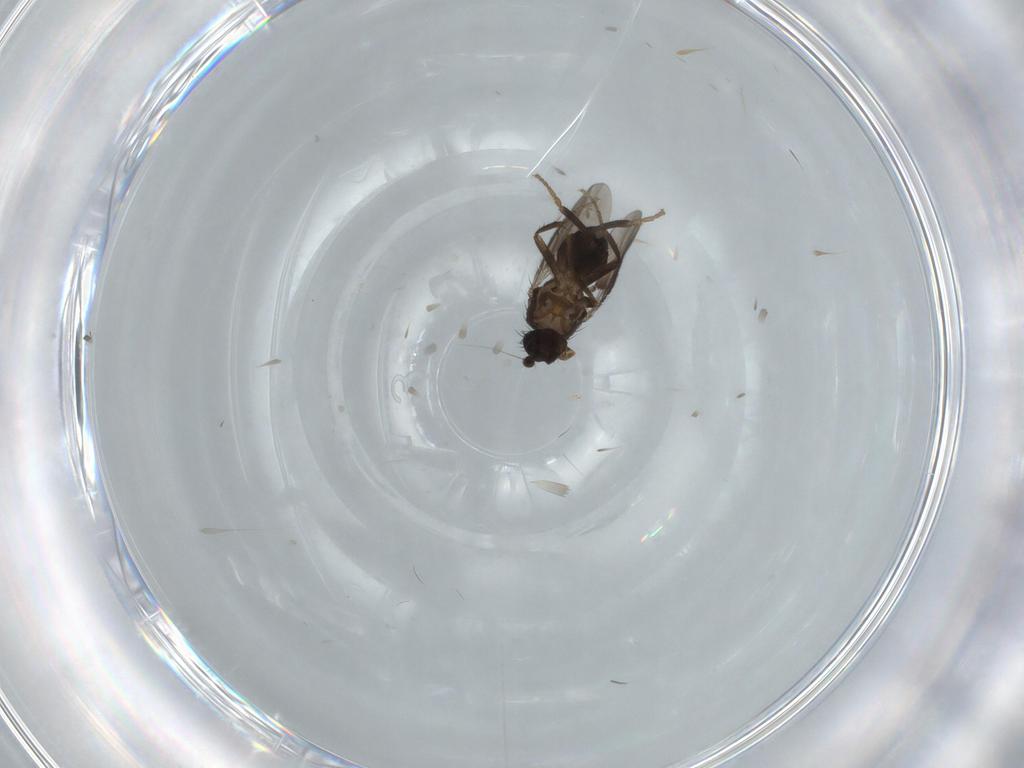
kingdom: Animalia
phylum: Arthropoda
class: Insecta
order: Diptera
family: Sphaeroceridae
